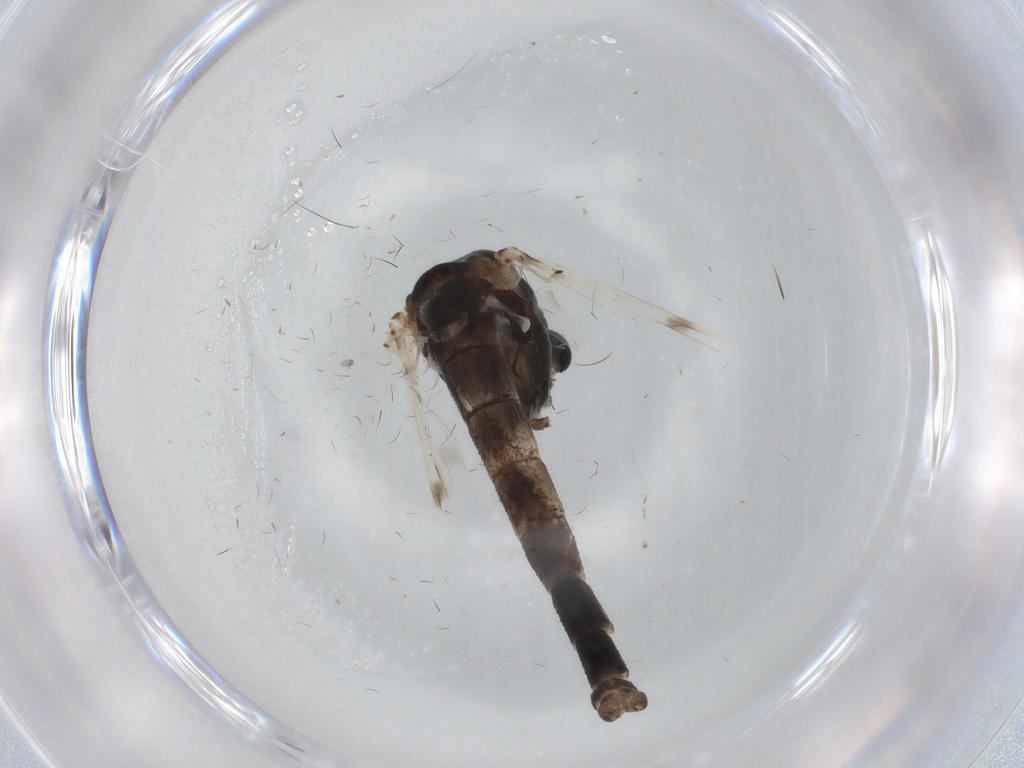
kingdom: Animalia
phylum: Arthropoda
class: Insecta
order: Diptera
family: Chironomidae
